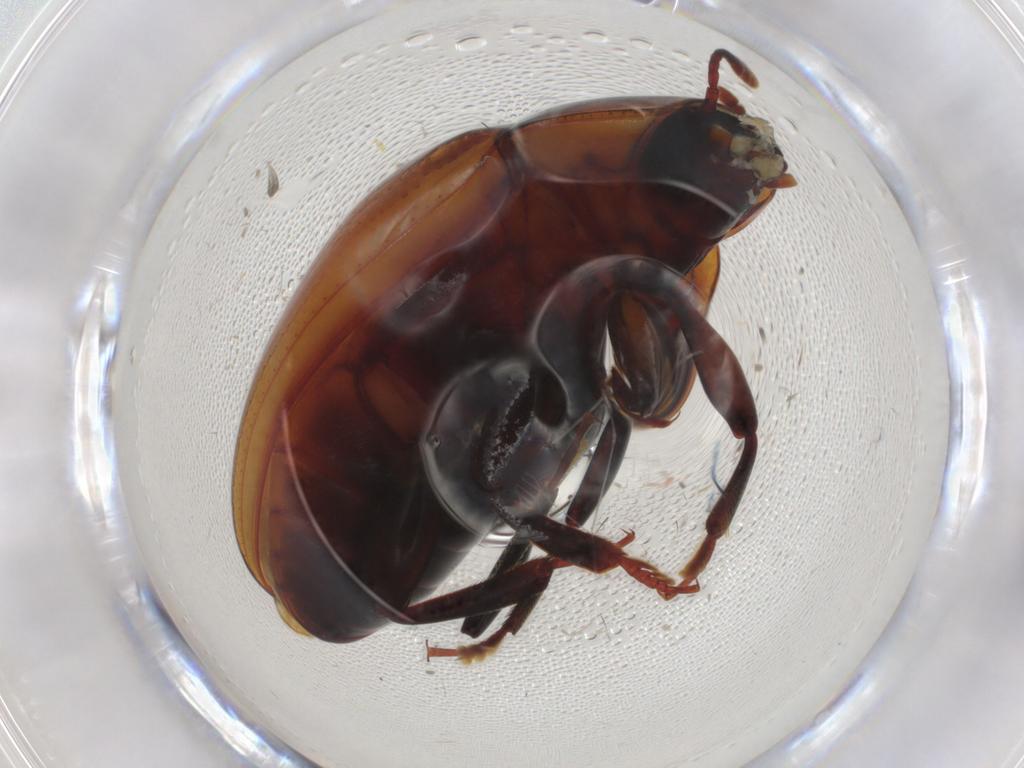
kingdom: Animalia
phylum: Arthropoda
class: Insecta
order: Coleoptera
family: Zopheridae
